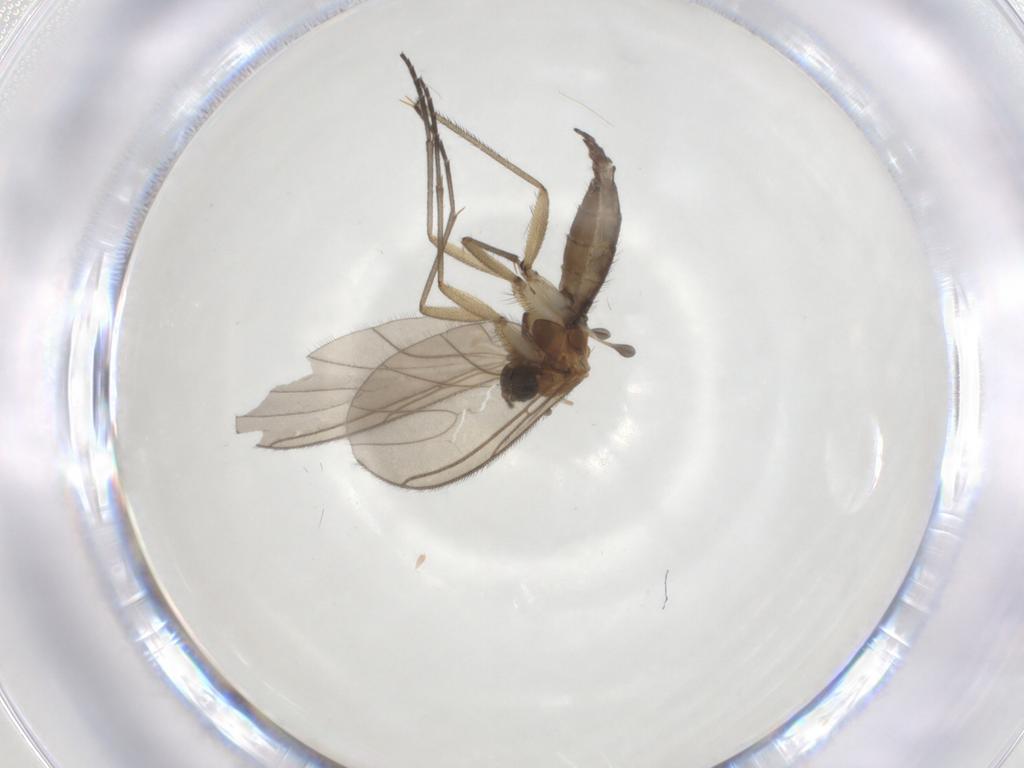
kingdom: Animalia
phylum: Arthropoda
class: Insecta
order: Diptera
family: Sciaridae
